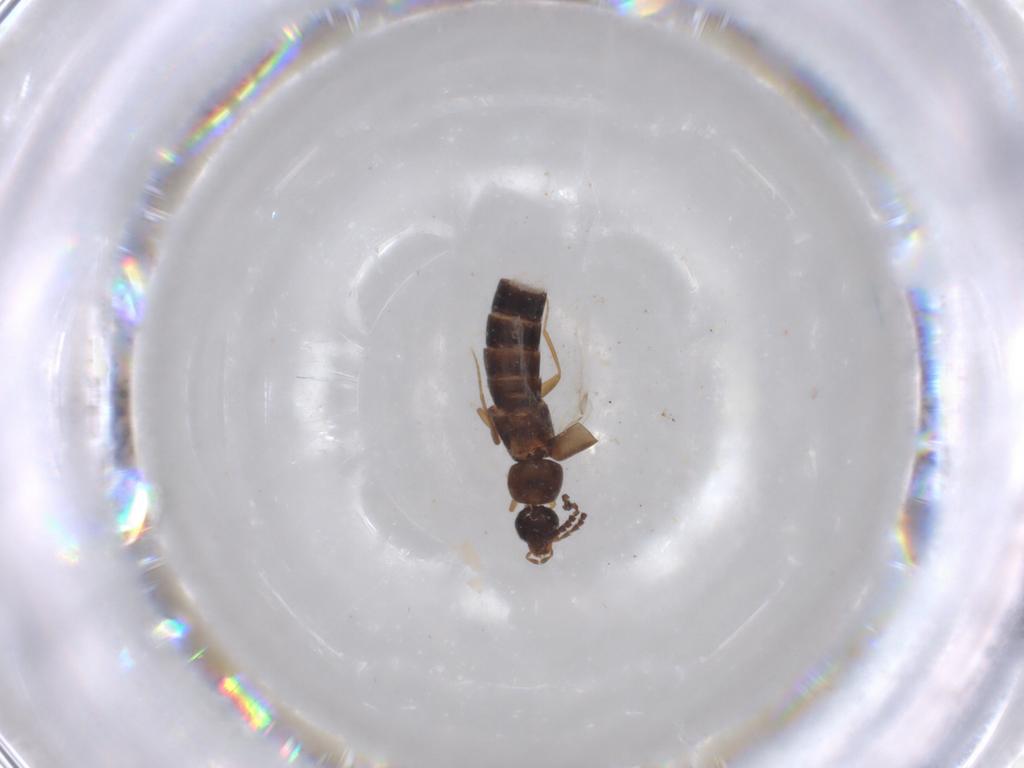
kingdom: Animalia
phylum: Arthropoda
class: Insecta
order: Coleoptera
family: Staphylinidae
